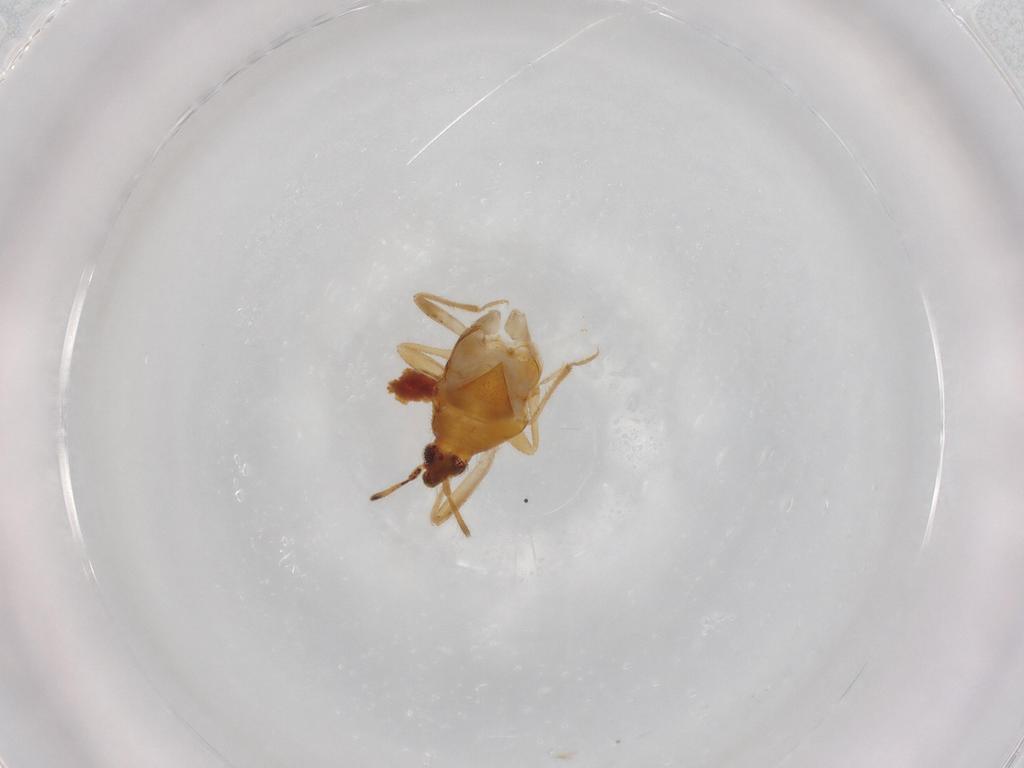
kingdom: Animalia
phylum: Arthropoda
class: Insecta
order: Hemiptera
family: Lasiochilidae
